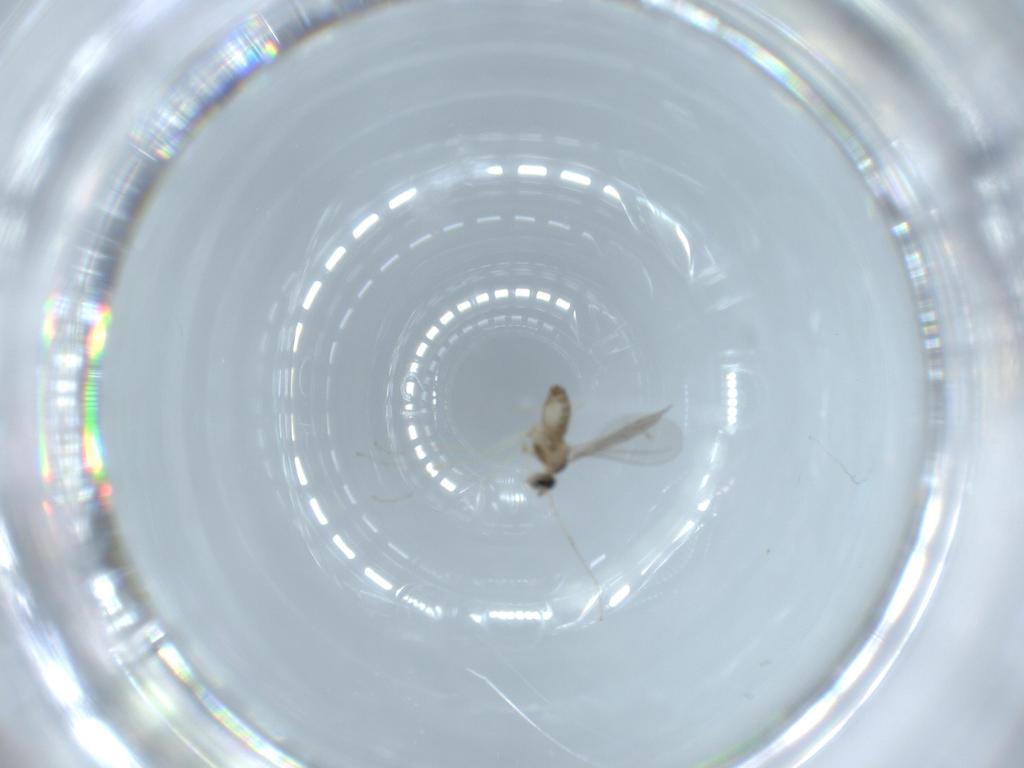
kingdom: Animalia
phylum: Arthropoda
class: Insecta
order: Diptera
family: Cecidomyiidae
